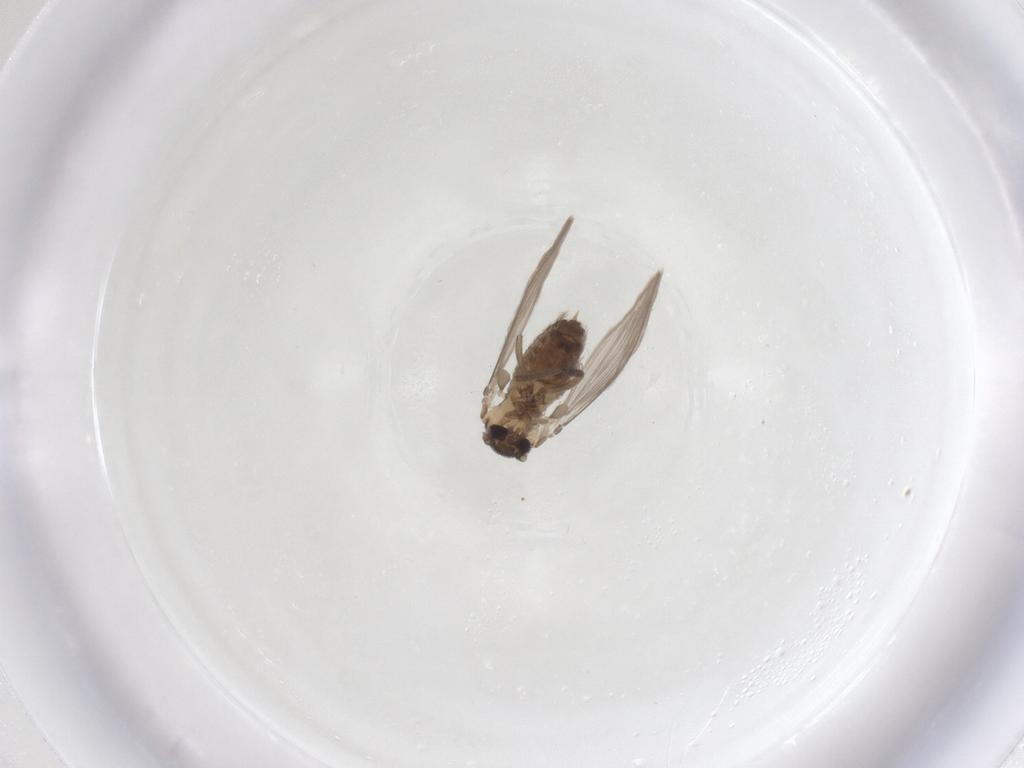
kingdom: Animalia
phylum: Arthropoda
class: Insecta
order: Diptera
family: Psychodidae
